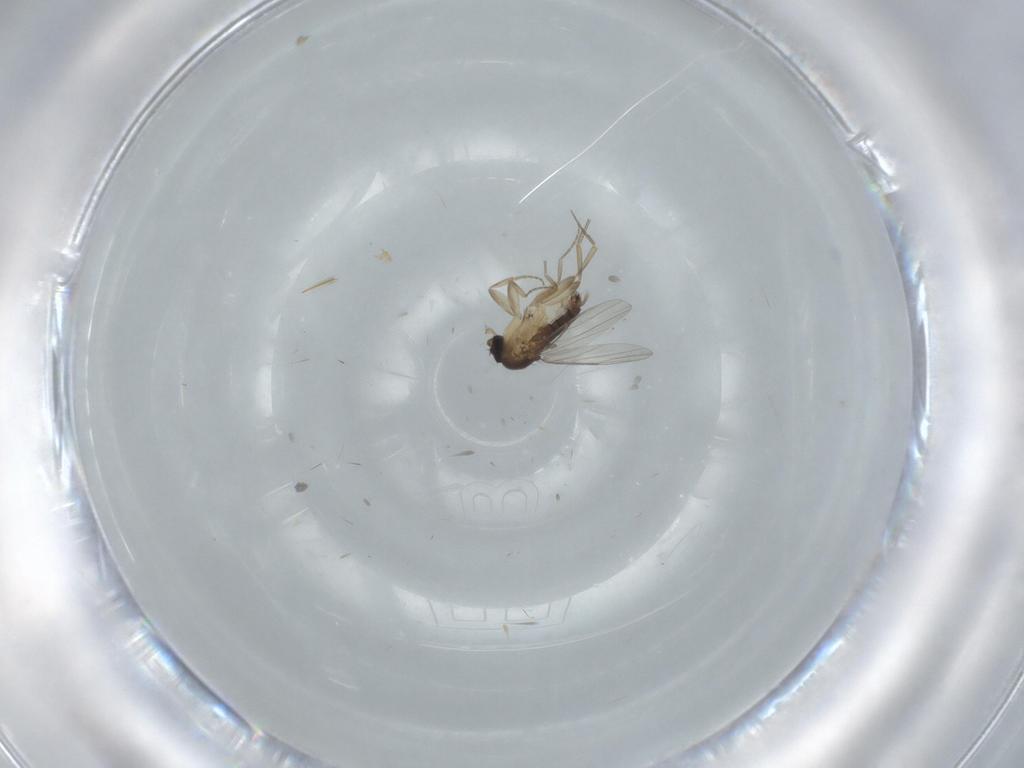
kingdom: Animalia
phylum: Arthropoda
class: Insecta
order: Diptera
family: Phoridae
